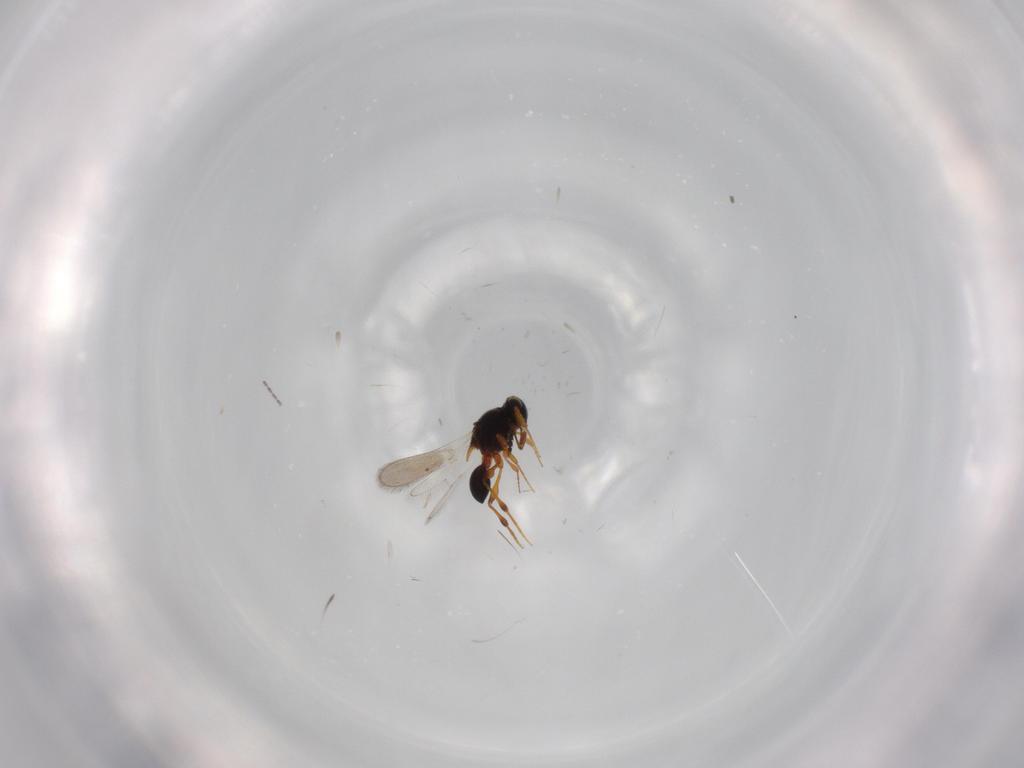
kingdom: Animalia
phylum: Arthropoda
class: Insecta
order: Hymenoptera
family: Platygastridae
